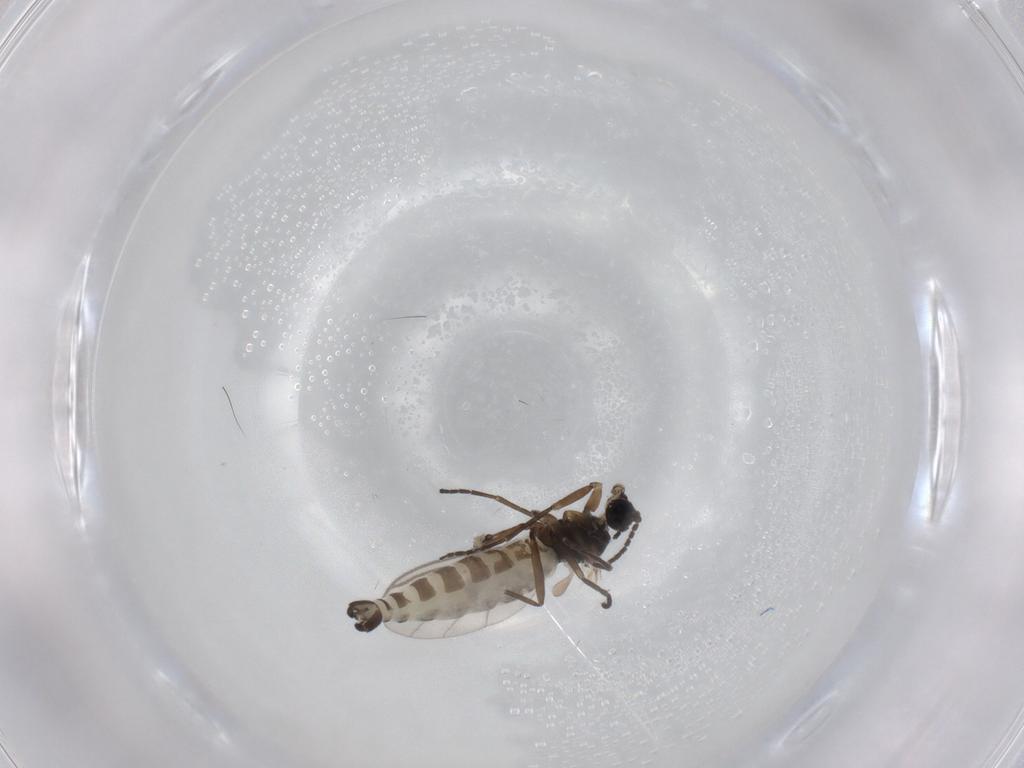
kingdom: Animalia
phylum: Arthropoda
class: Insecta
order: Diptera
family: Sciaridae
